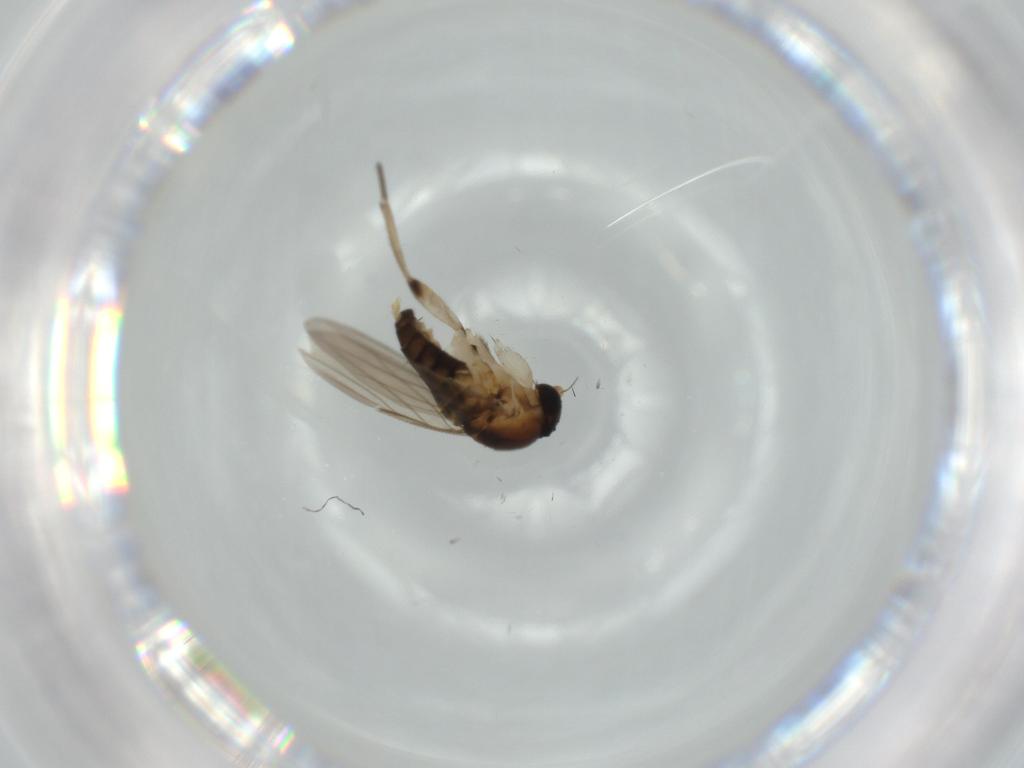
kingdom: Animalia
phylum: Arthropoda
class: Insecta
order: Diptera
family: Phoridae
